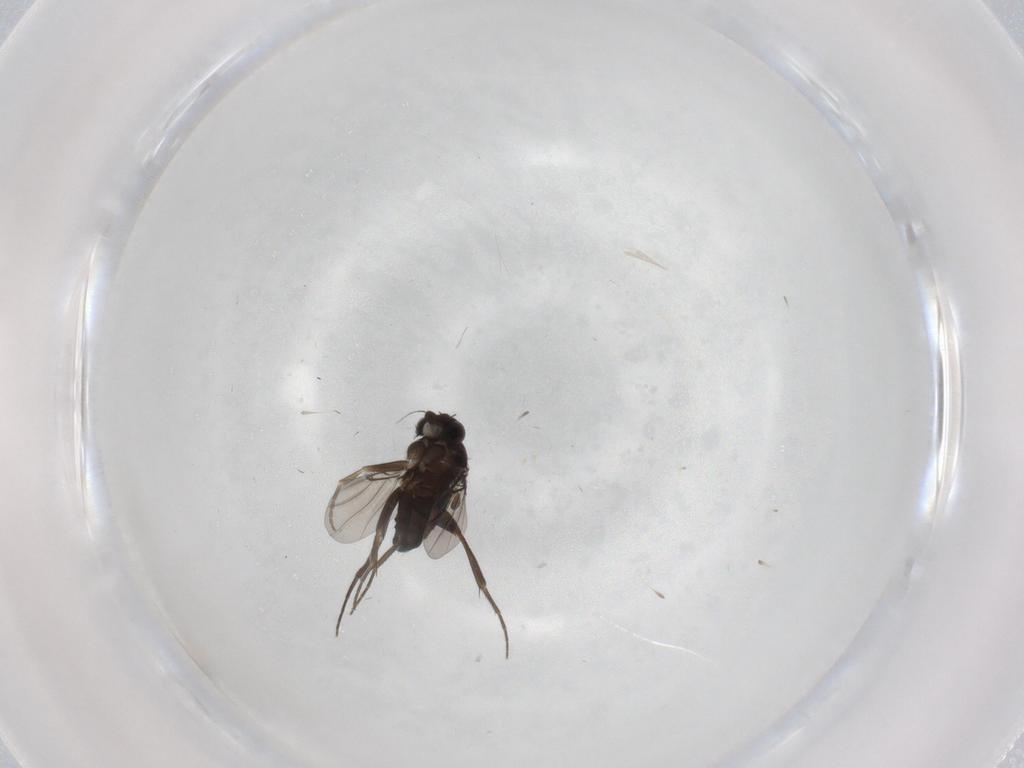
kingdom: Animalia
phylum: Arthropoda
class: Insecta
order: Diptera
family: Phoridae
